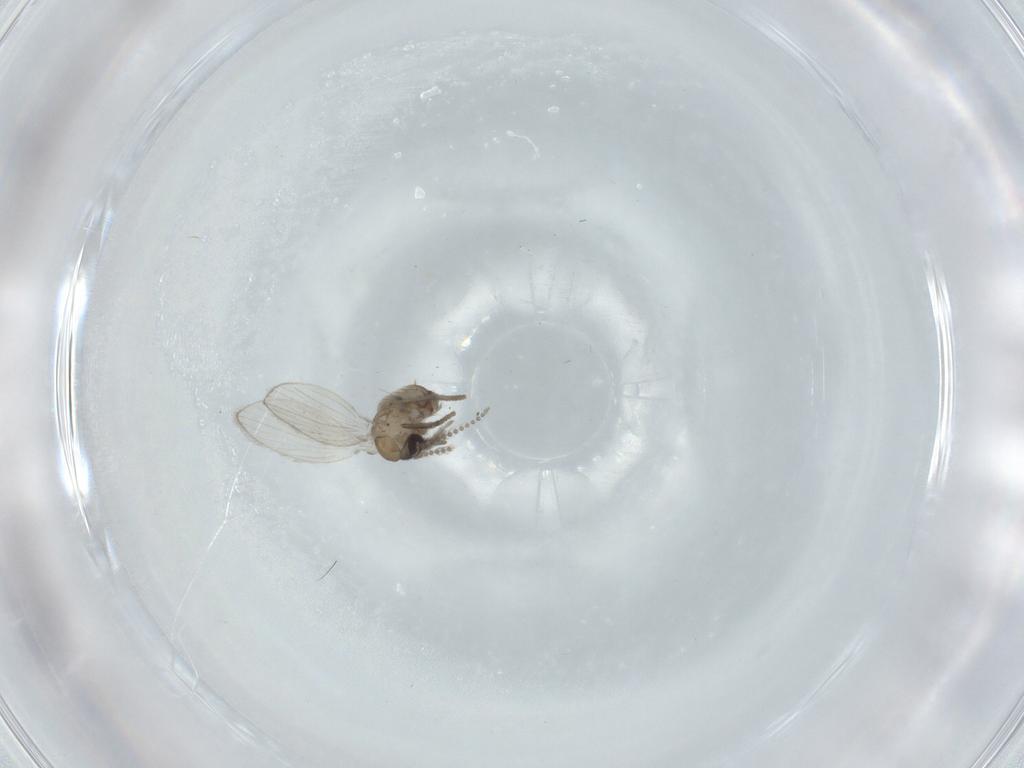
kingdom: Animalia
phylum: Arthropoda
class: Insecta
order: Diptera
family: Psychodidae
